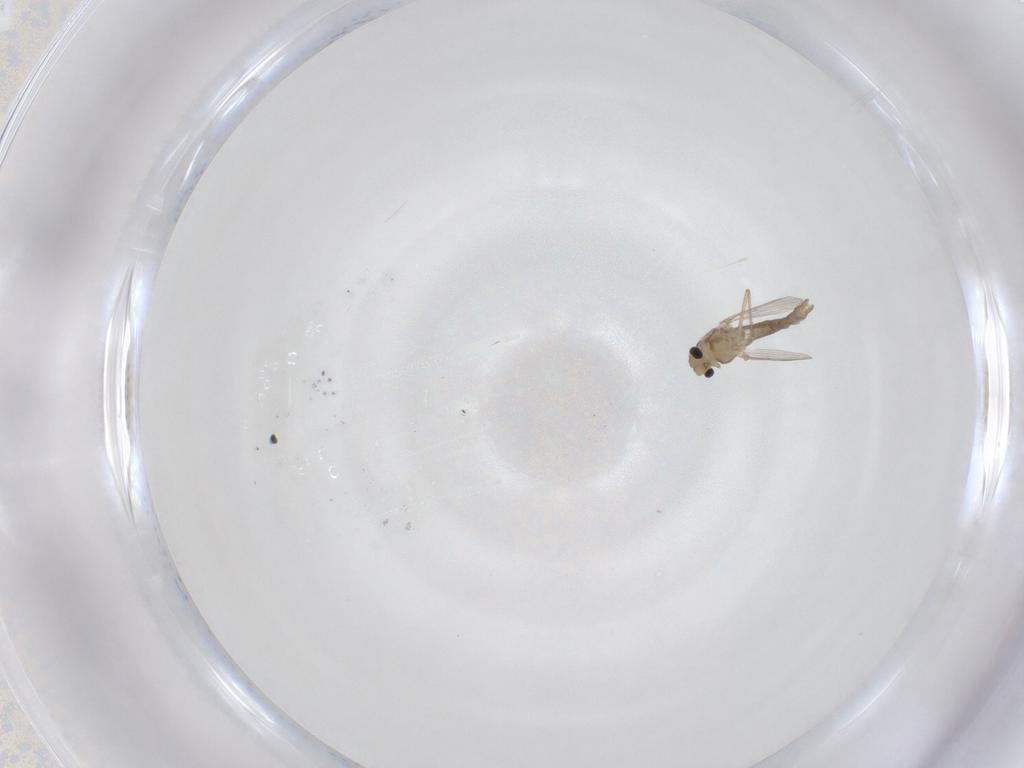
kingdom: Animalia
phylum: Arthropoda
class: Insecta
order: Diptera
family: Chironomidae
